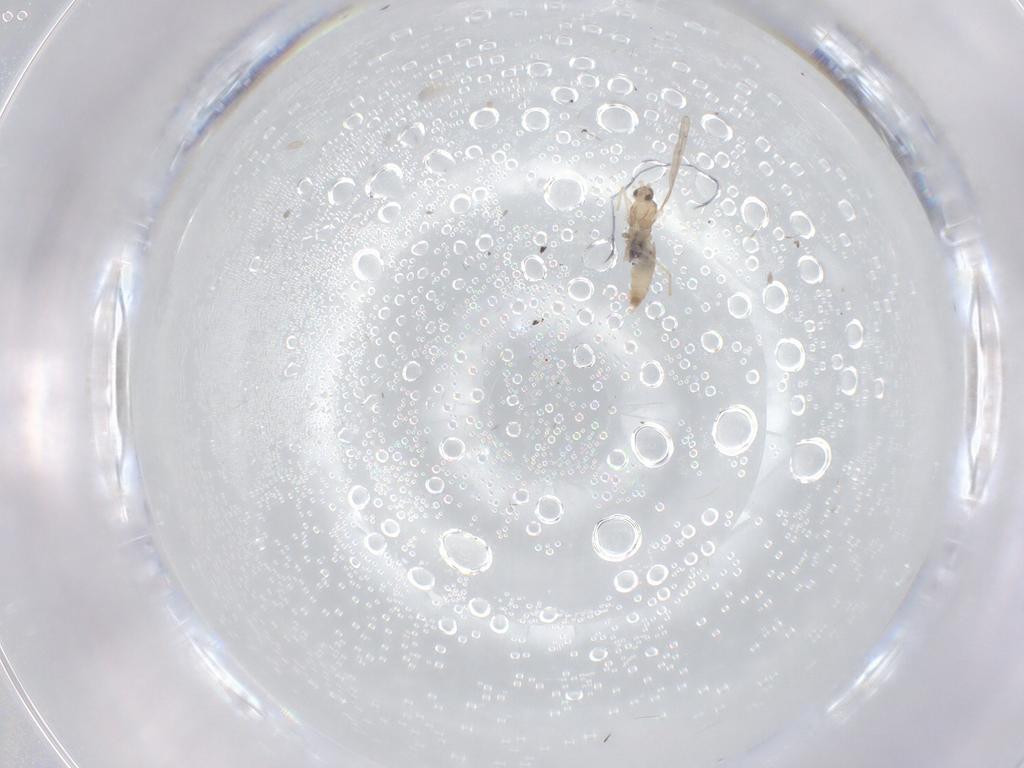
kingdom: Animalia
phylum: Arthropoda
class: Insecta
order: Diptera
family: Cecidomyiidae
